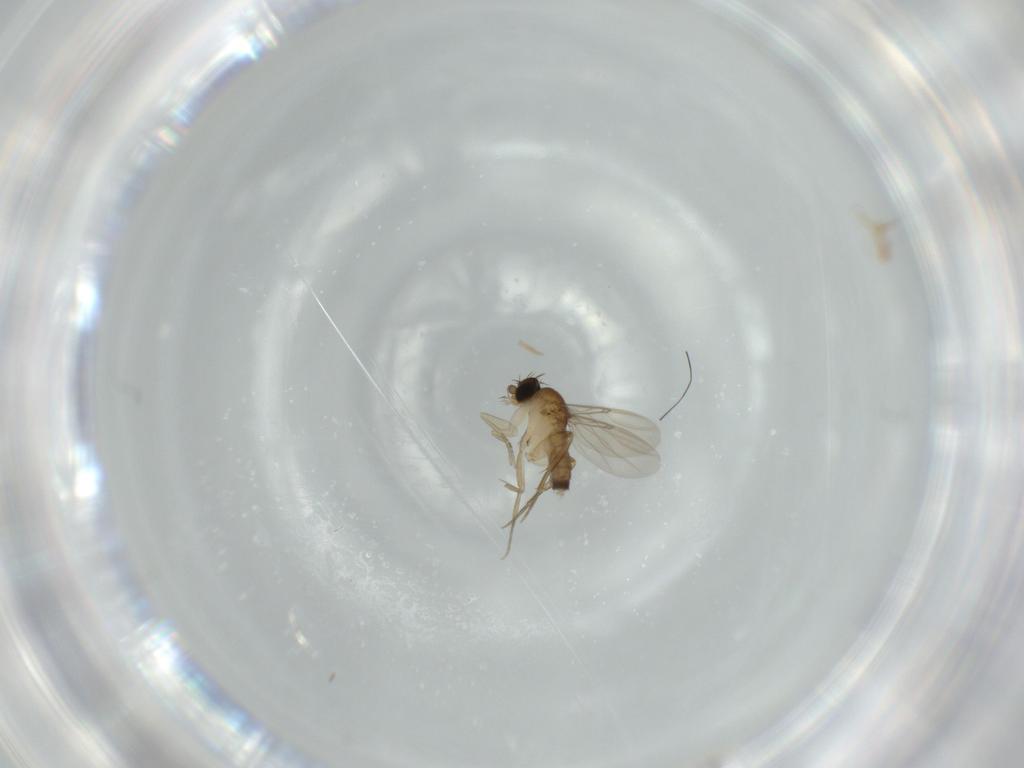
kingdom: Animalia
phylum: Arthropoda
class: Insecta
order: Diptera
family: Phoridae
